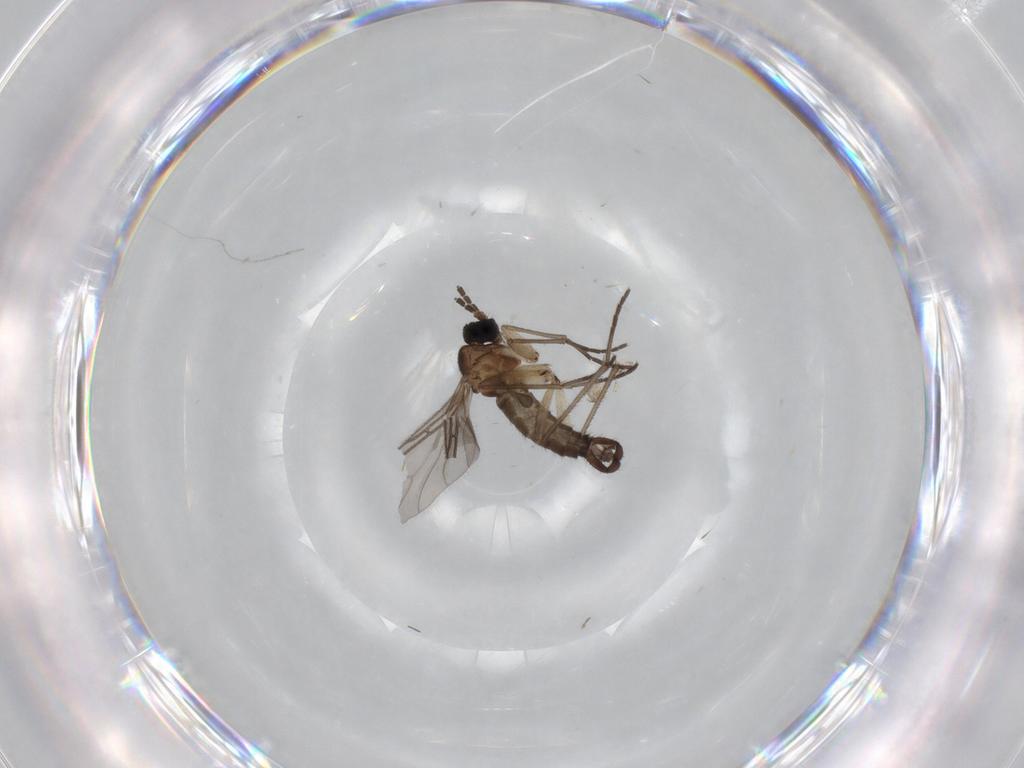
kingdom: Animalia
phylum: Arthropoda
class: Insecta
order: Diptera
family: Sciaridae
